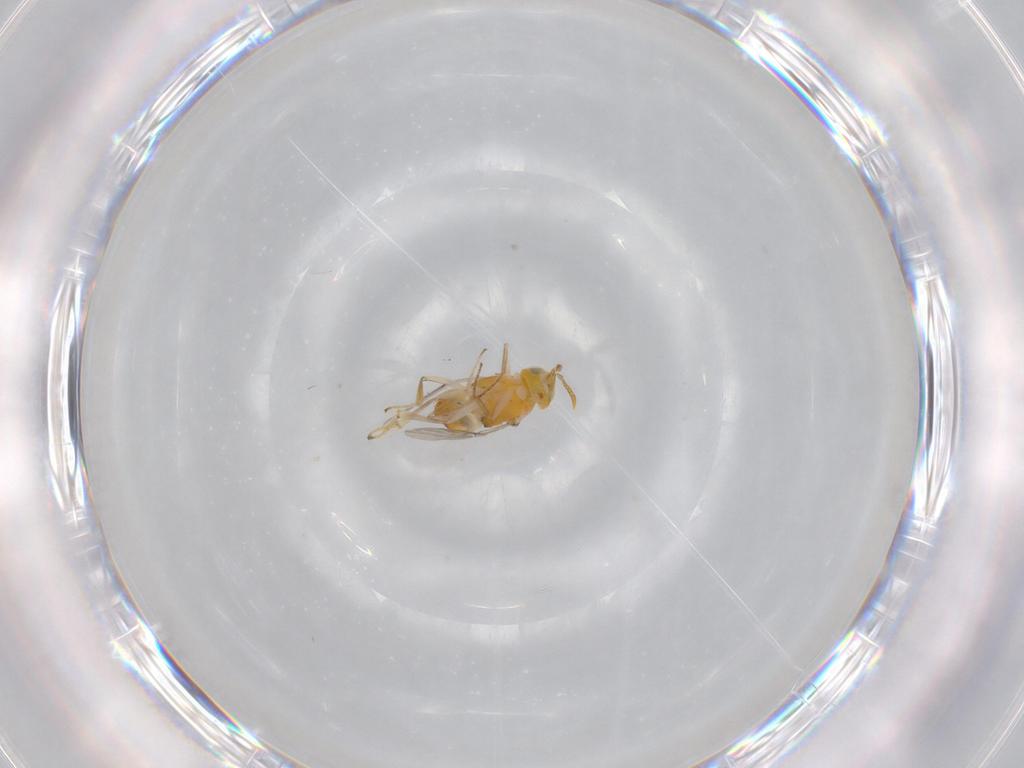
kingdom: Animalia
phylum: Arthropoda
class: Insecta
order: Hymenoptera
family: Encyrtidae
